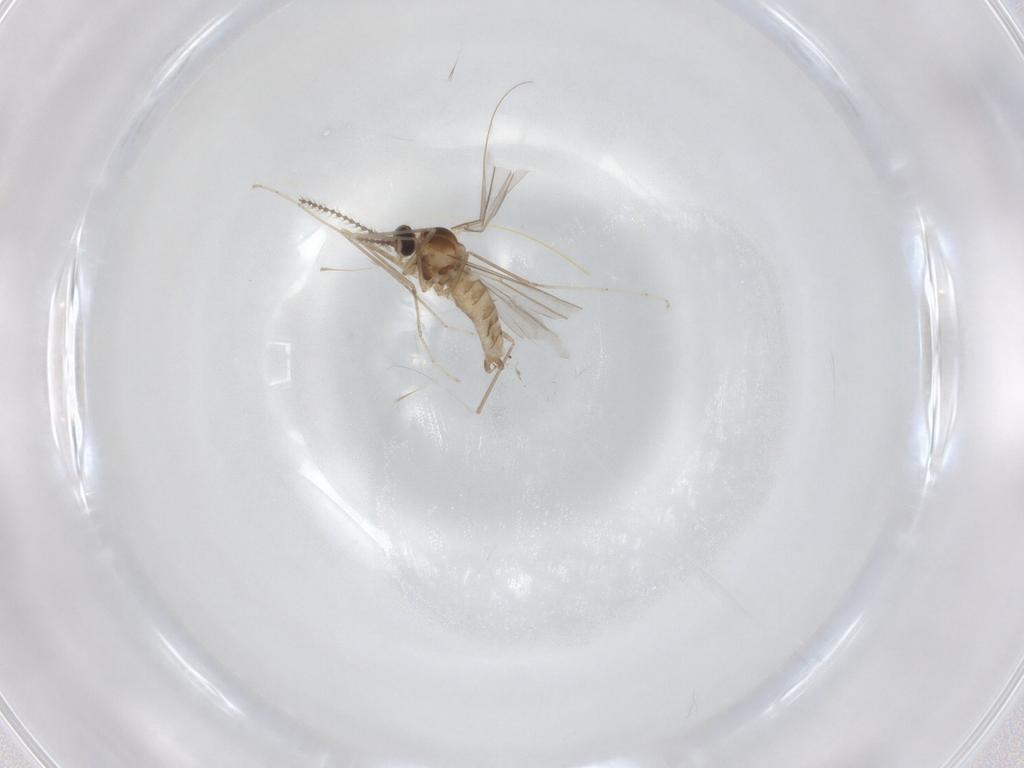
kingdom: Animalia
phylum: Arthropoda
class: Insecta
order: Diptera
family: Cecidomyiidae
